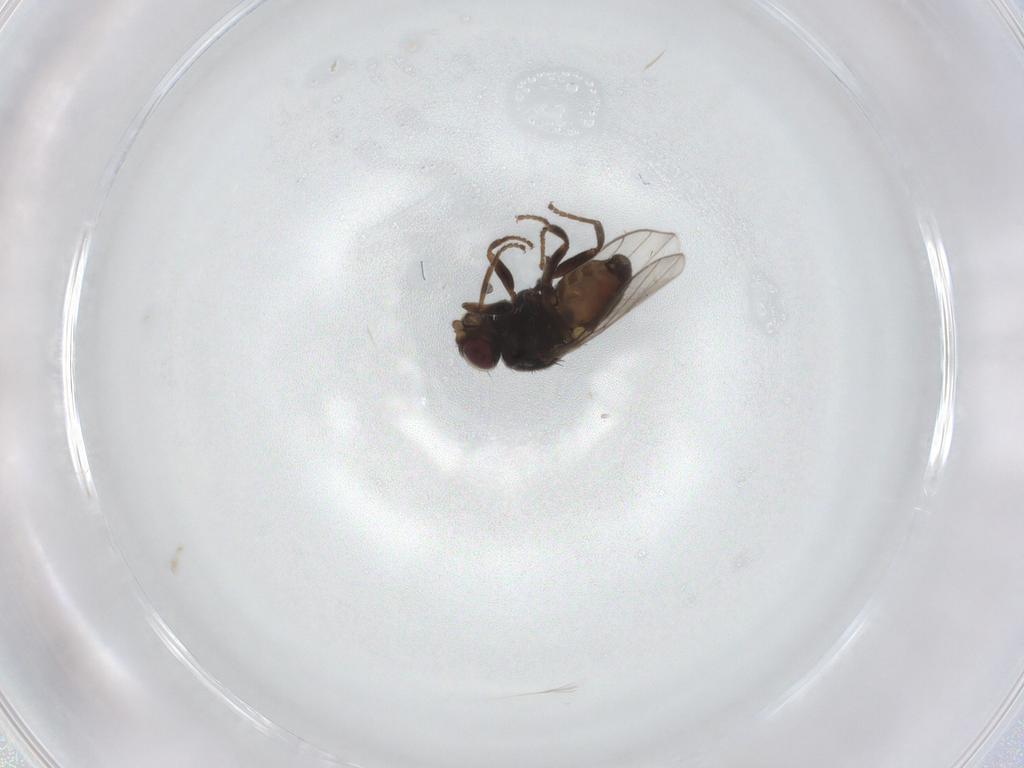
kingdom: Animalia
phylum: Arthropoda
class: Insecta
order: Diptera
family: Chloropidae
